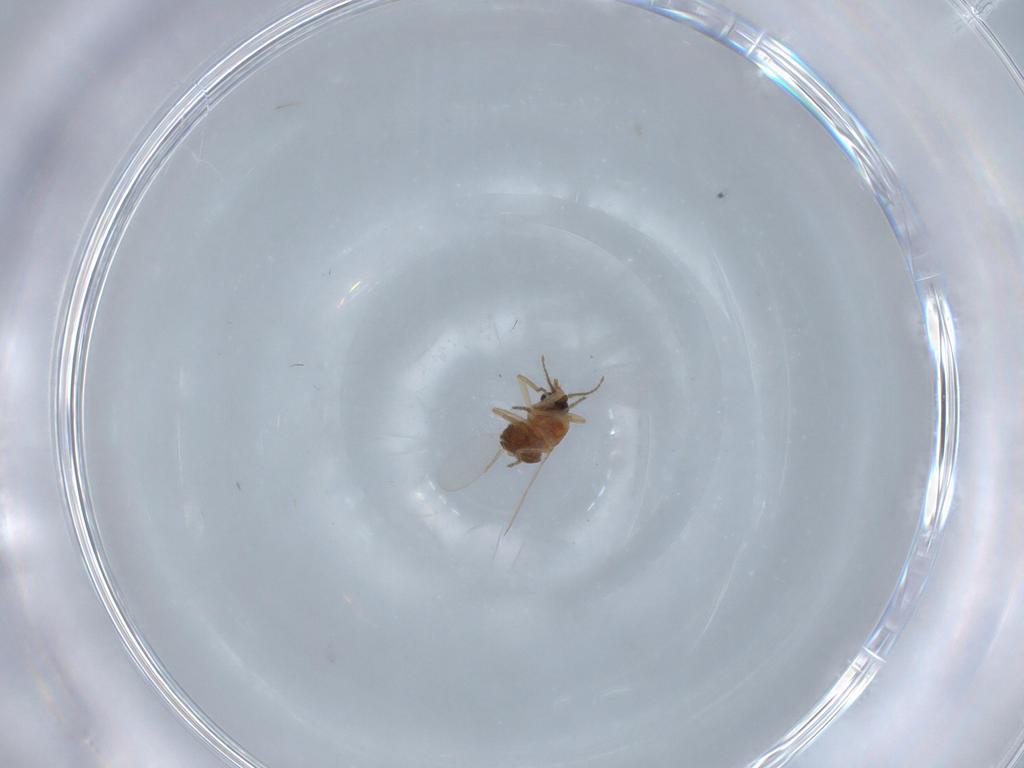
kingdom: Animalia
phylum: Arthropoda
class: Insecta
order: Diptera
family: Ceratopogonidae
